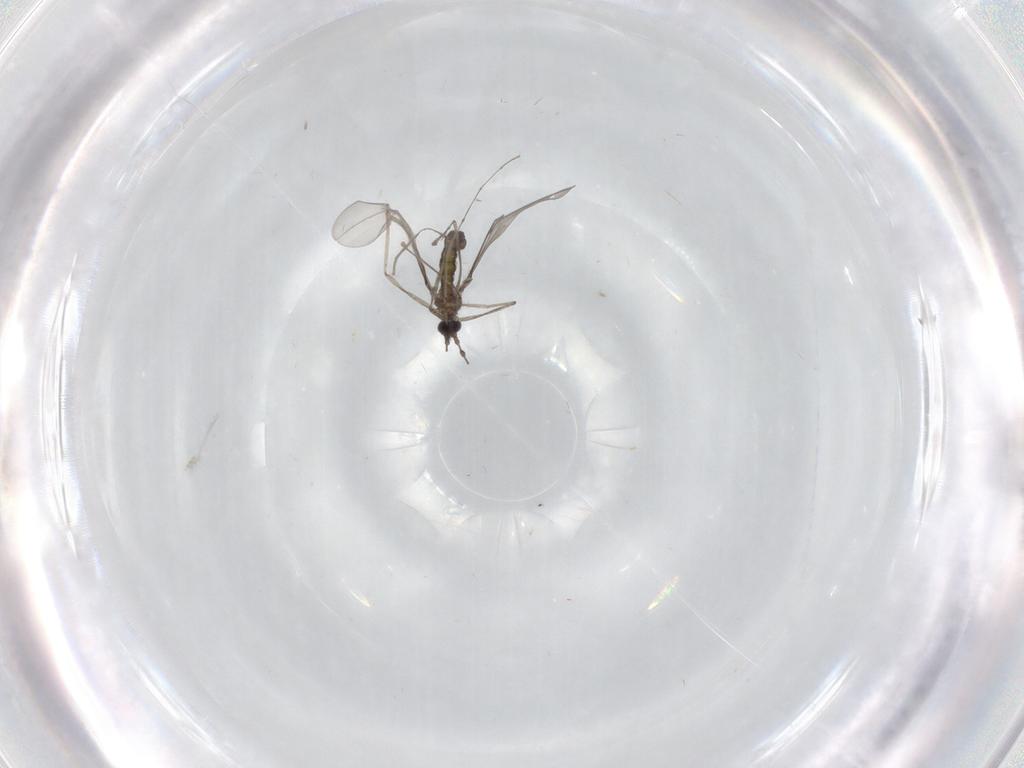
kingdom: Animalia
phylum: Arthropoda
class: Insecta
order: Diptera
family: Cecidomyiidae
